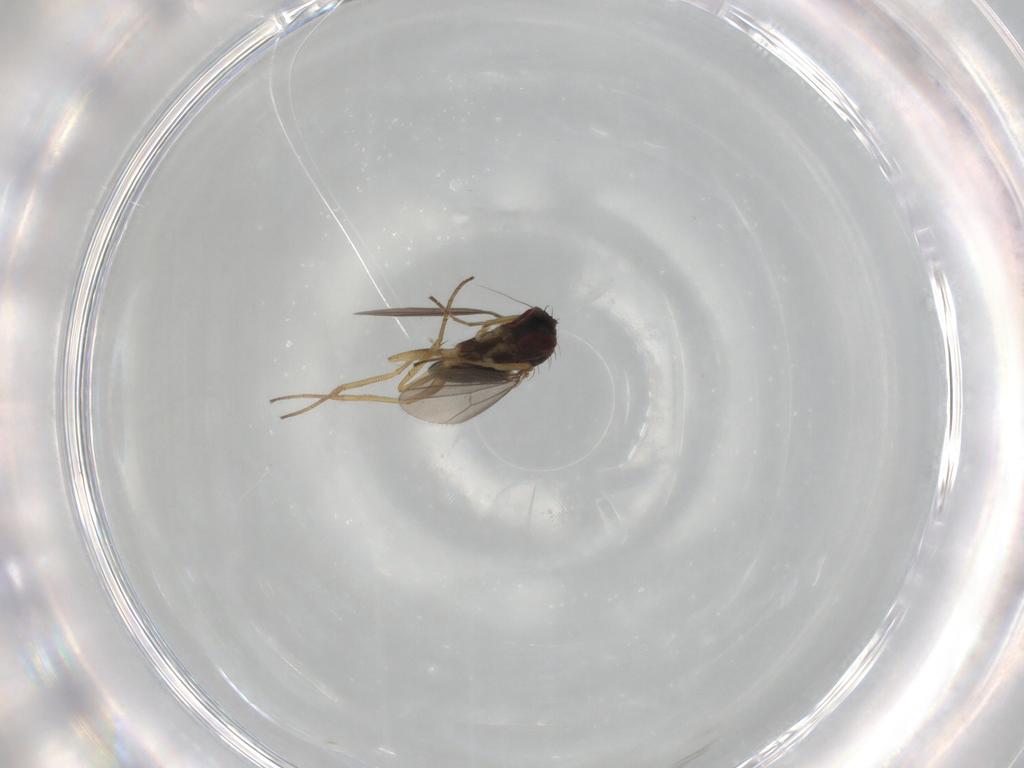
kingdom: Animalia
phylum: Arthropoda
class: Insecta
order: Diptera
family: Dolichopodidae
